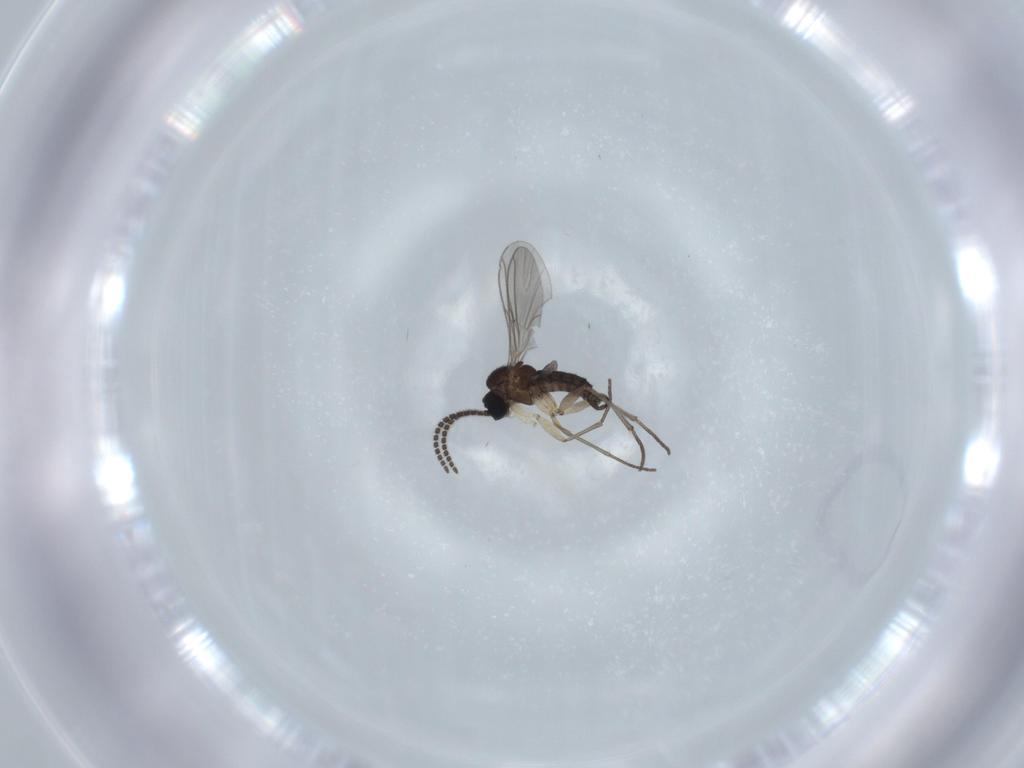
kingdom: Animalia
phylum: Arthropoda
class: Insecta
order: Diptera
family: Sciaridae
